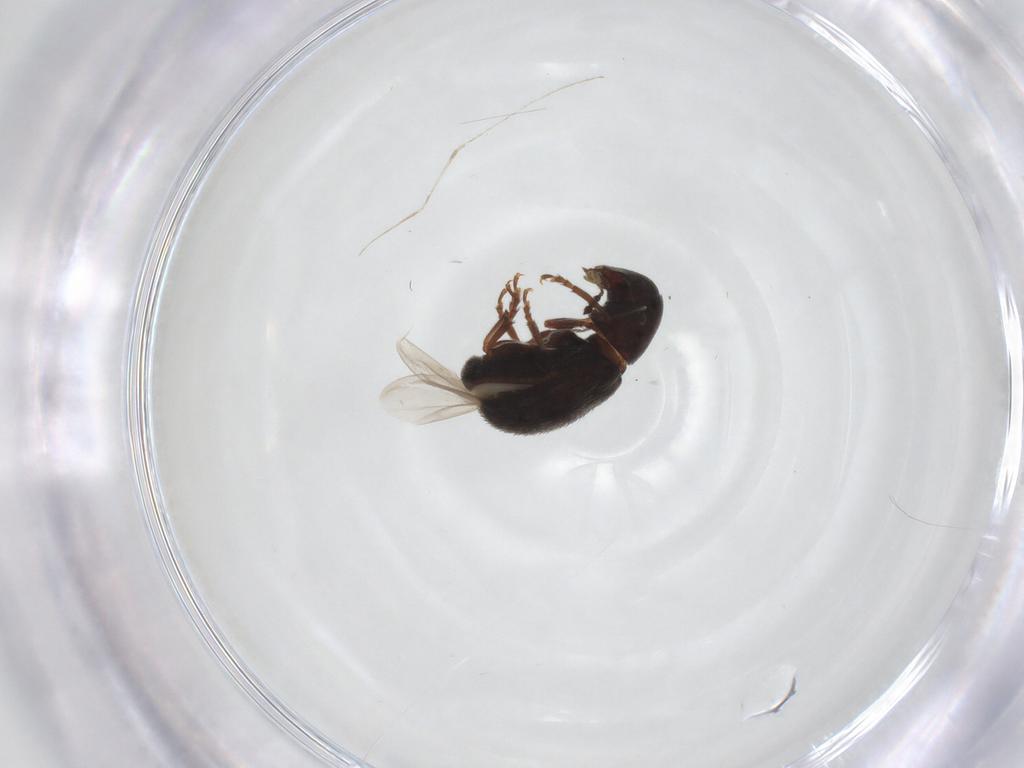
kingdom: Animalia
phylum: Arthropoda
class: Insecta
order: Coleoptera
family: Anthribidae
